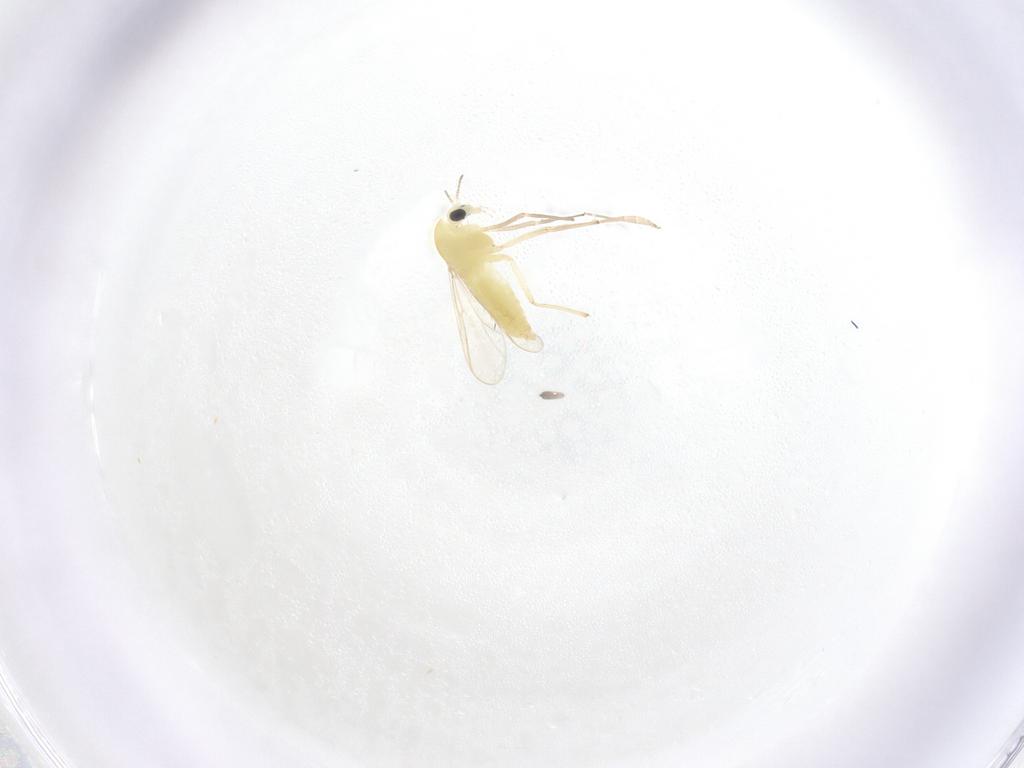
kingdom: Animalia
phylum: Arthropoda
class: Insecta
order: Diptera
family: Chironomidae
